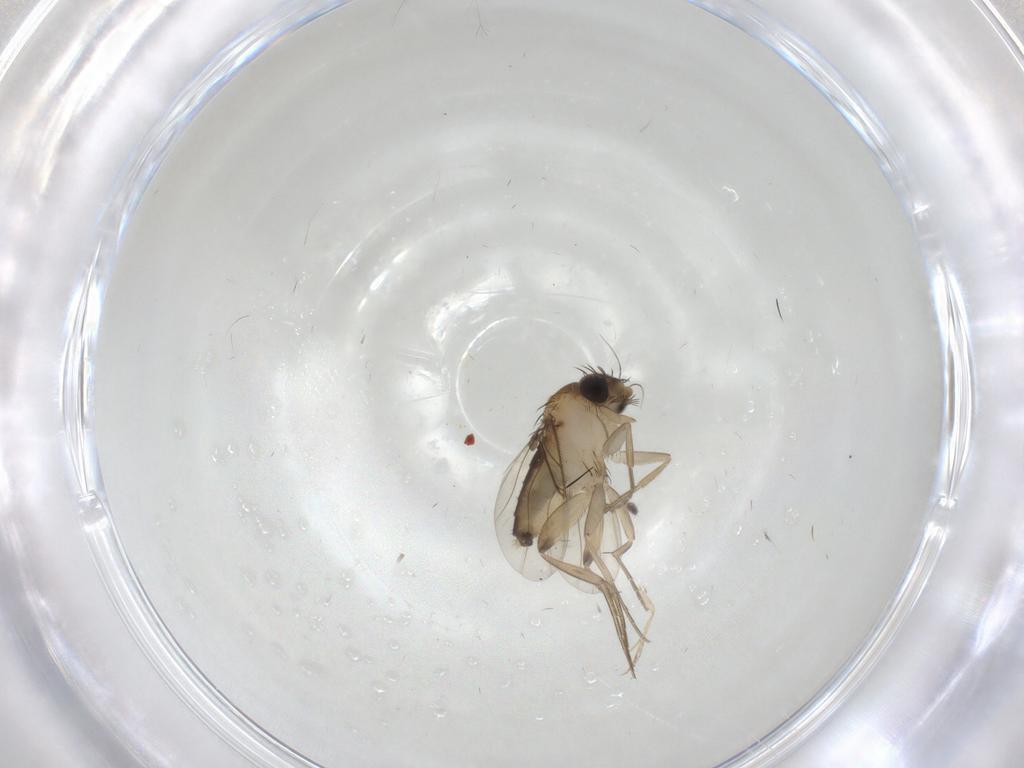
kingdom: Animalia
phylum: Arthropoda
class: Insecta
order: Diptera
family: Phoridae
